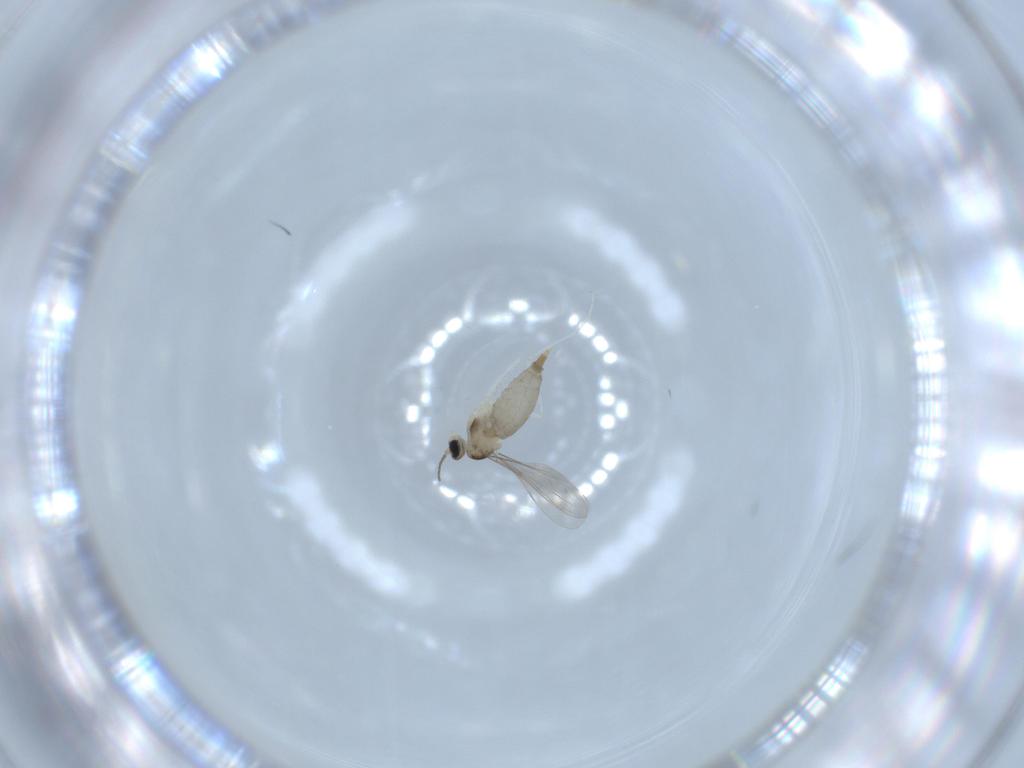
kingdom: Animalia
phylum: Arthropoda
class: Insecta
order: Diptera
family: Phoridae
